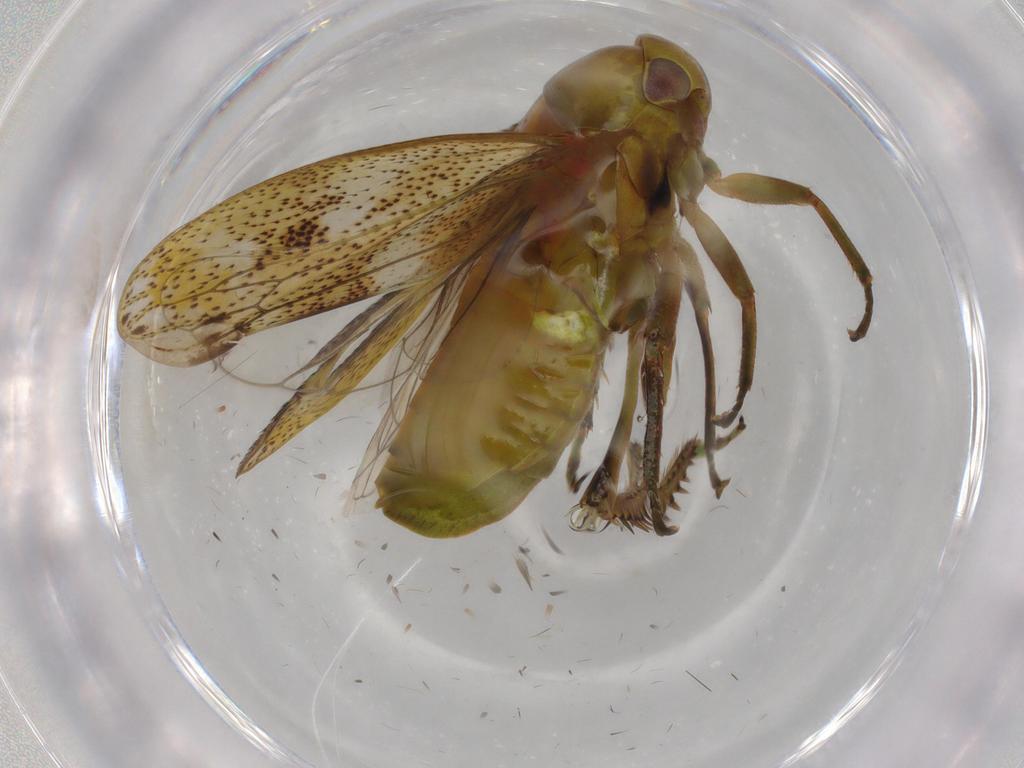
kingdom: Animalia
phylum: Arthropoda
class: Insecta
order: Hemiptera
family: Cicadellidae
